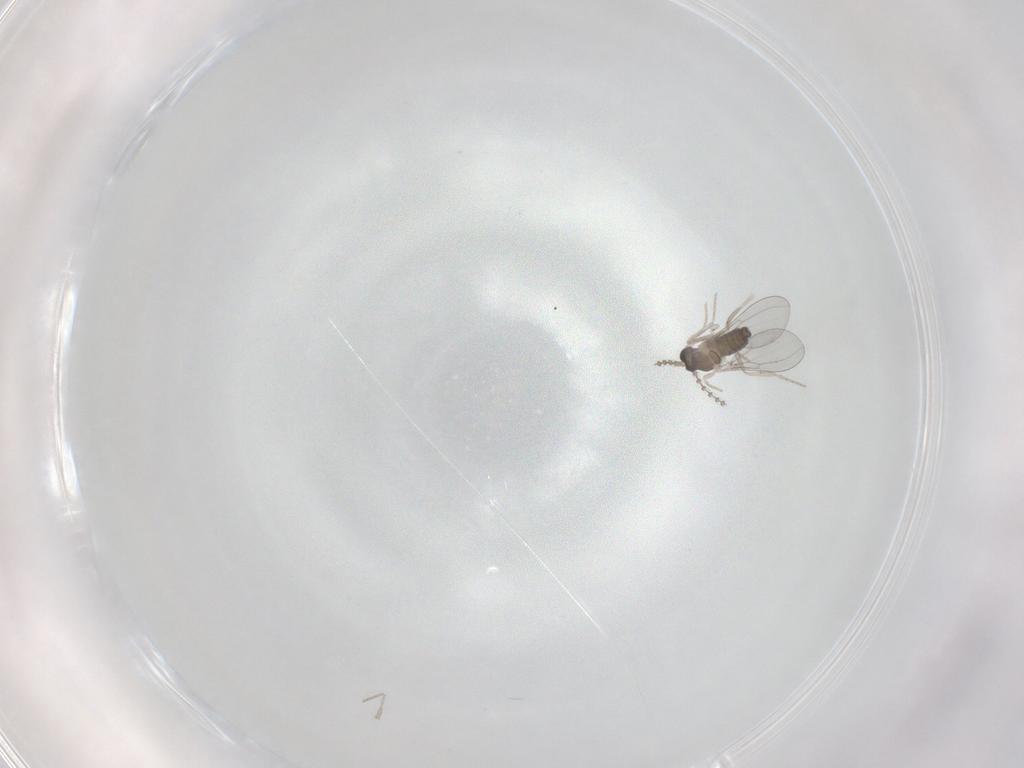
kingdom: Animalia
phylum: Arthropoda
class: Insecta
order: Diptera
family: Cecidomyiidae
